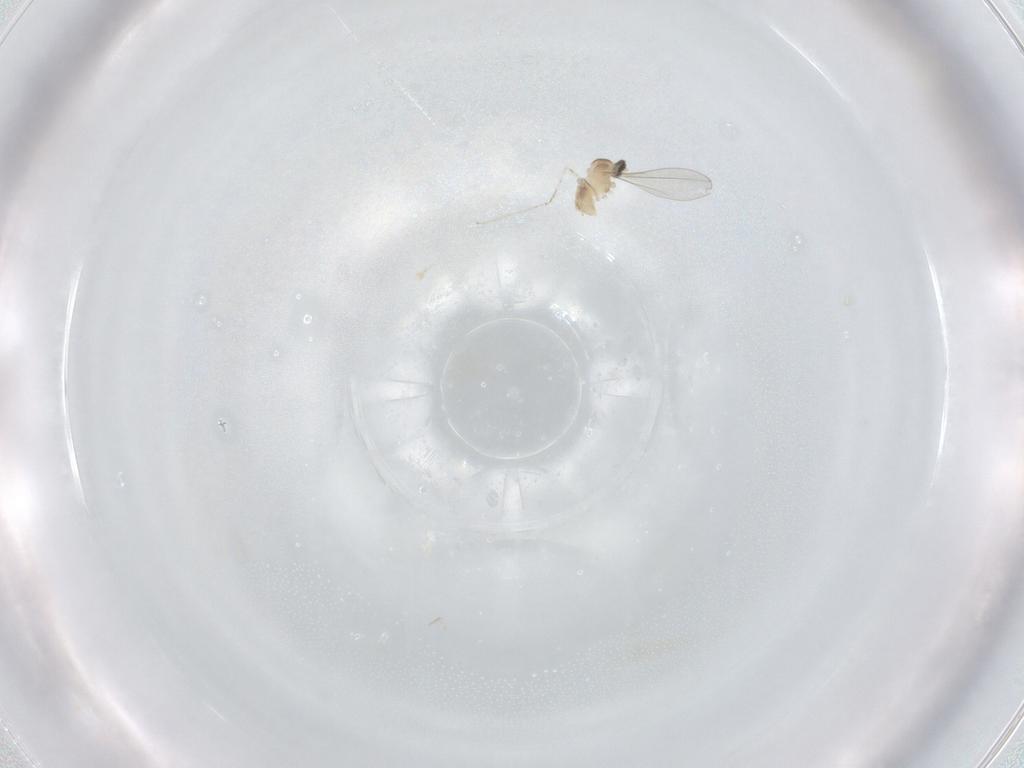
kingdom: Animalia
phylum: Arthropoda
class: Insecta
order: Diptera
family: Cecidomyiidae
